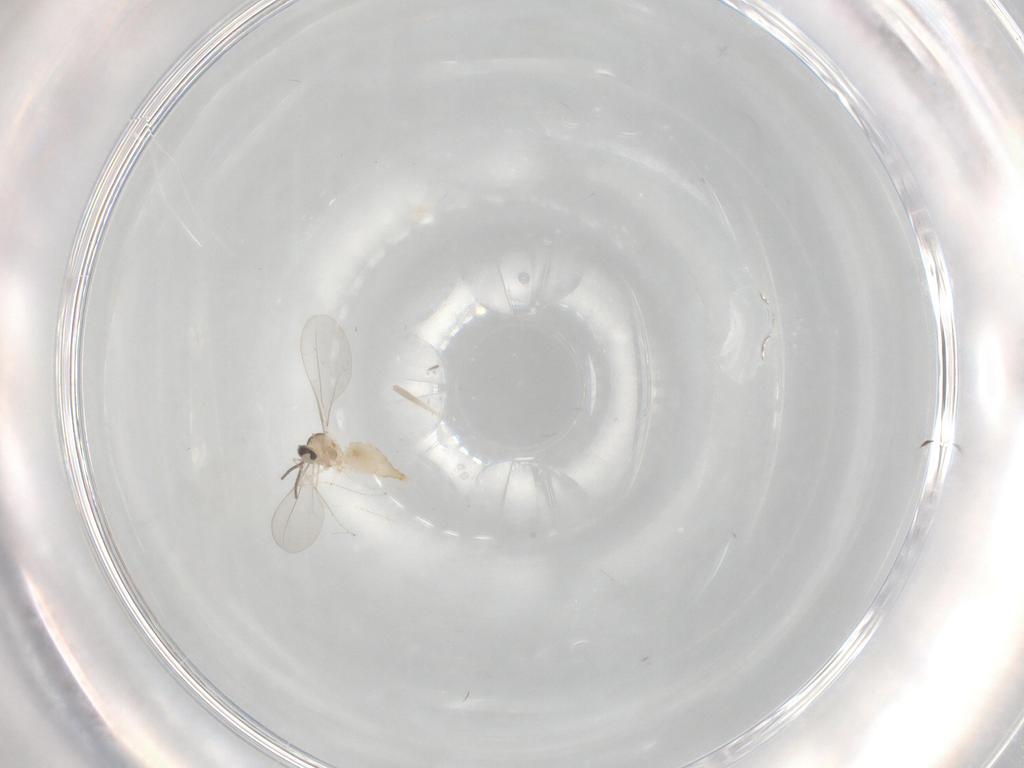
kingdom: Animalia
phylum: Arthropoda
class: Insecta
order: Diptera
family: Cecidomyiidae
